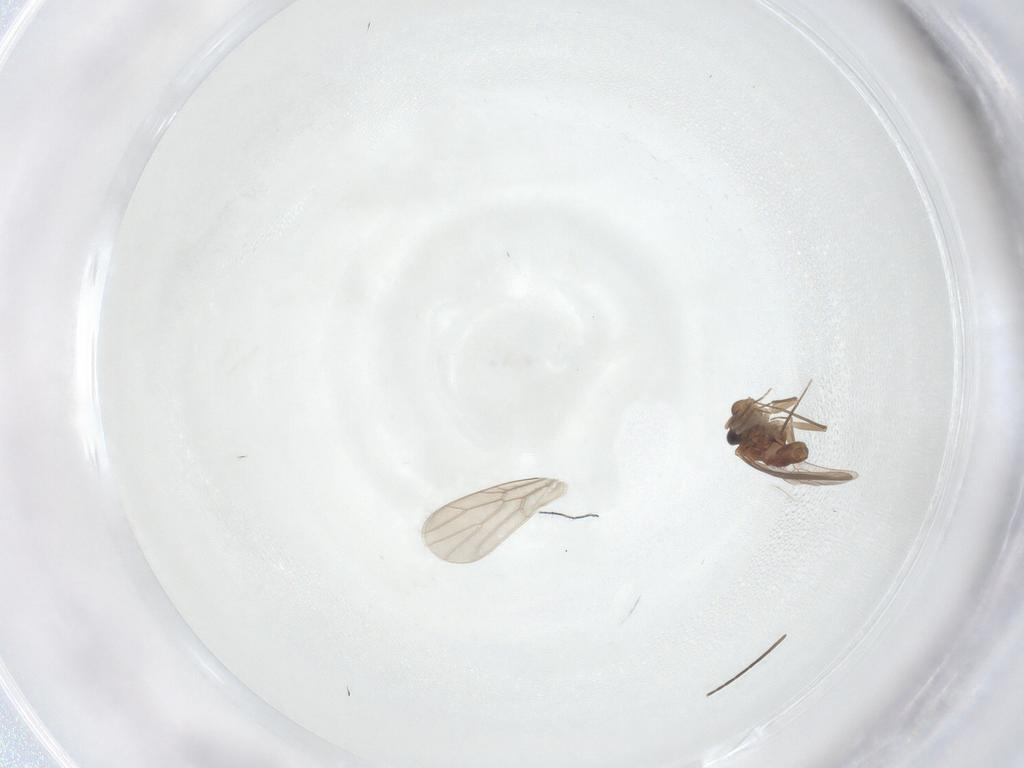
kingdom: Animalia
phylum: Arthropoda
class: Insecta
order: Psocodea
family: Lepidopsocidae
